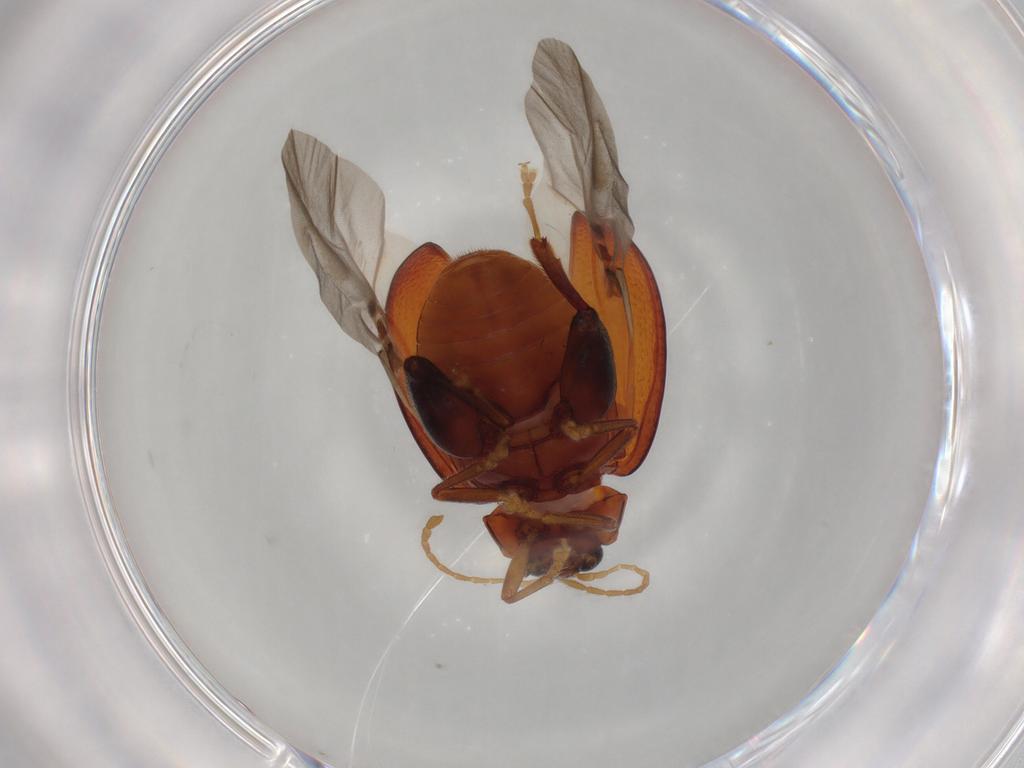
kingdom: Animalia
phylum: Arthropoda
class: Insecta
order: Coleoptera
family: Chrysomelidae
